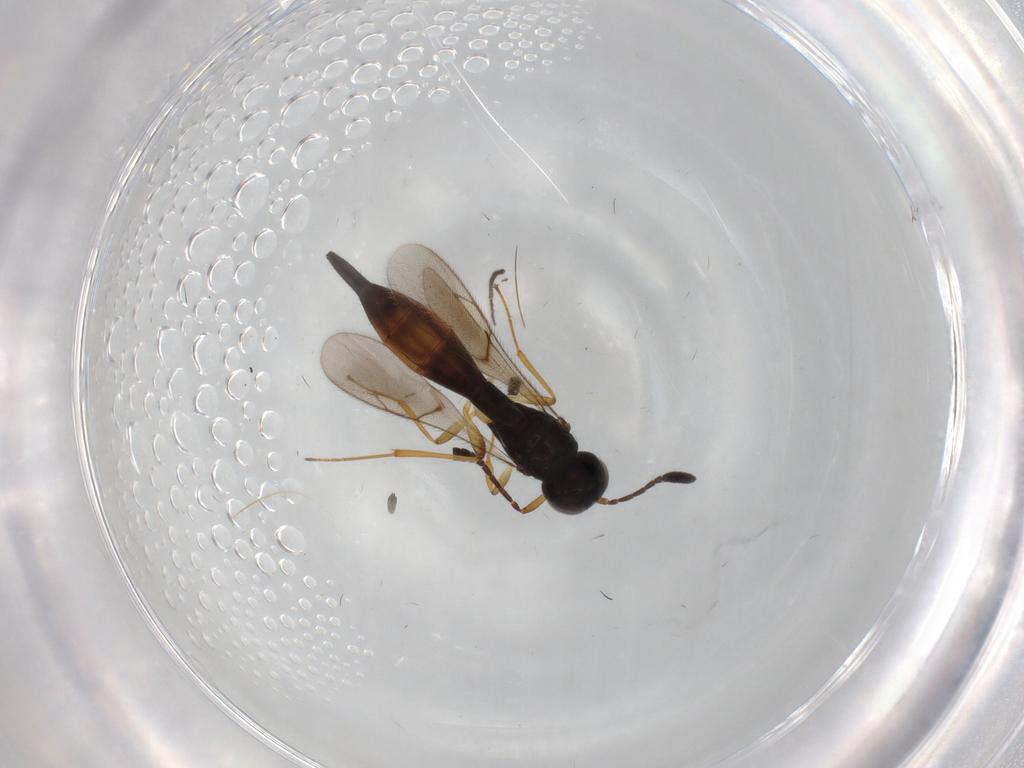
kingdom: Animalia
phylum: Arthropoda
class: Insecta
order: Hymenoptera
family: Scelionidae
